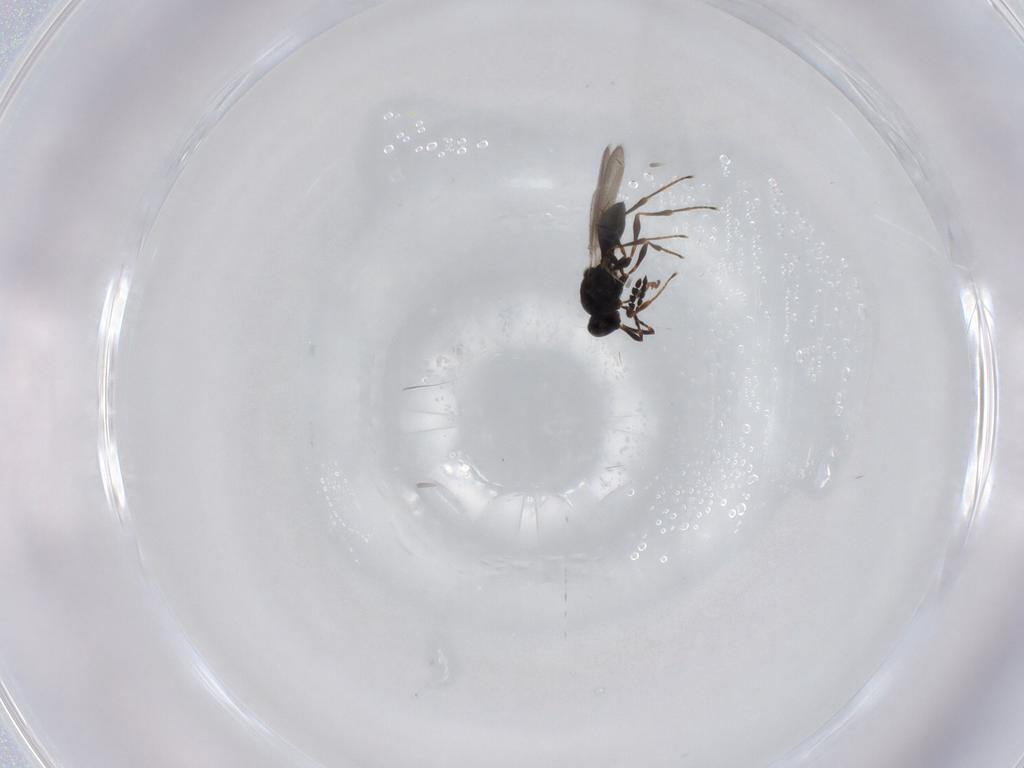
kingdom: Animalia
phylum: Arthropoda
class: Insecta
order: Hymenoptera
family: Platygastridae
